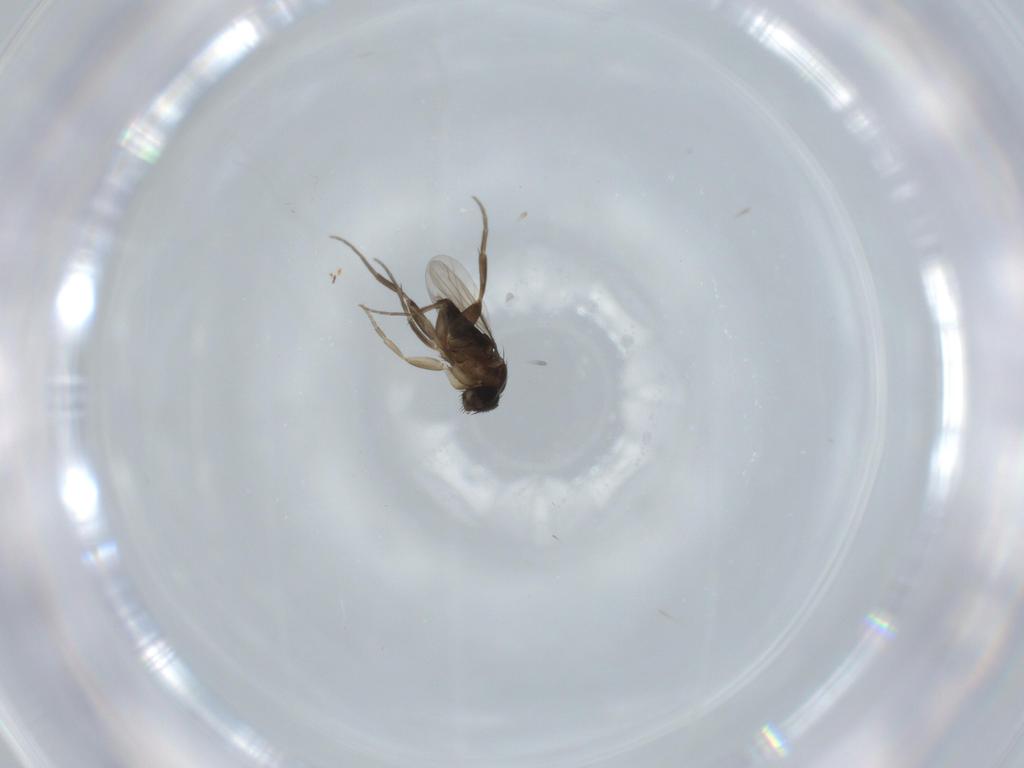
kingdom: Animalia
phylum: Arthropoda
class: Insecta
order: Diptera
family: Phoridae
